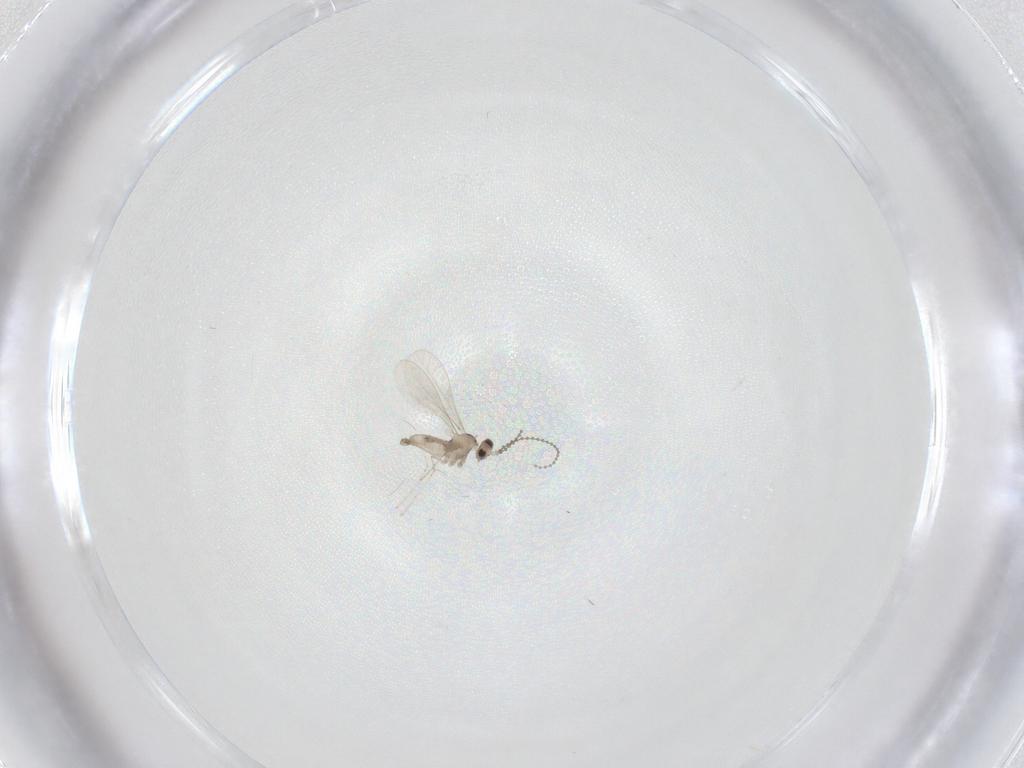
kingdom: Animalia
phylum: Arthropoda
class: Insecta
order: Diptera
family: Cecidomyiidae
